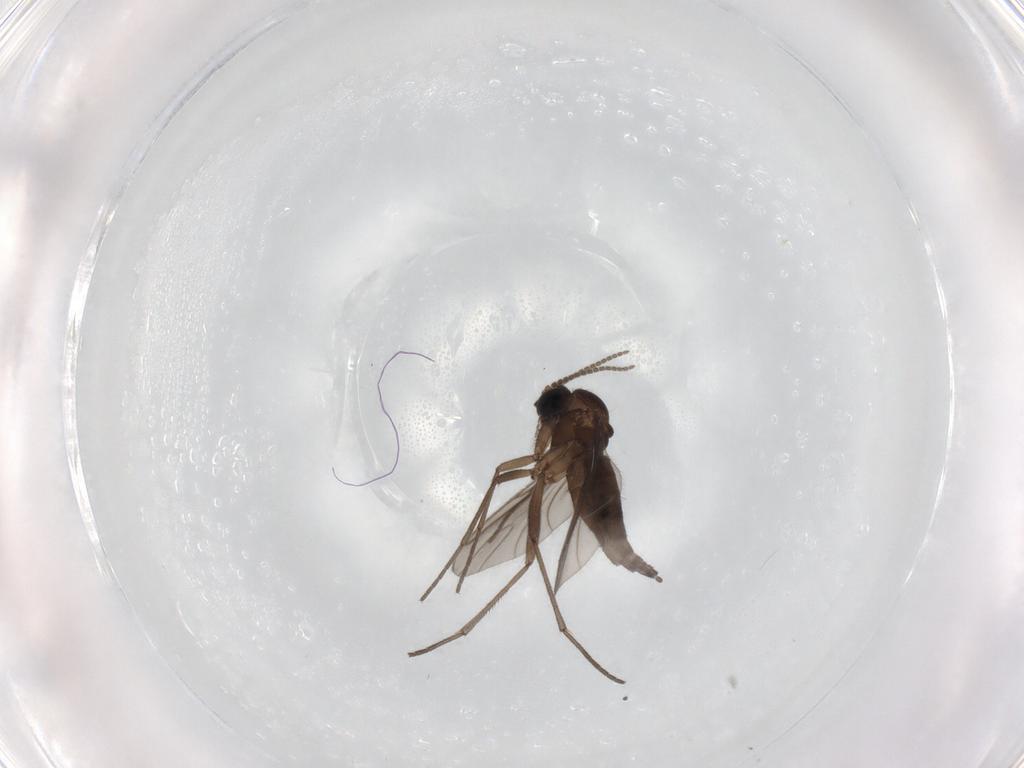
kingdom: Animalia
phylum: Arthropoda
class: Insecta
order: Diptera
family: Sciaridae
